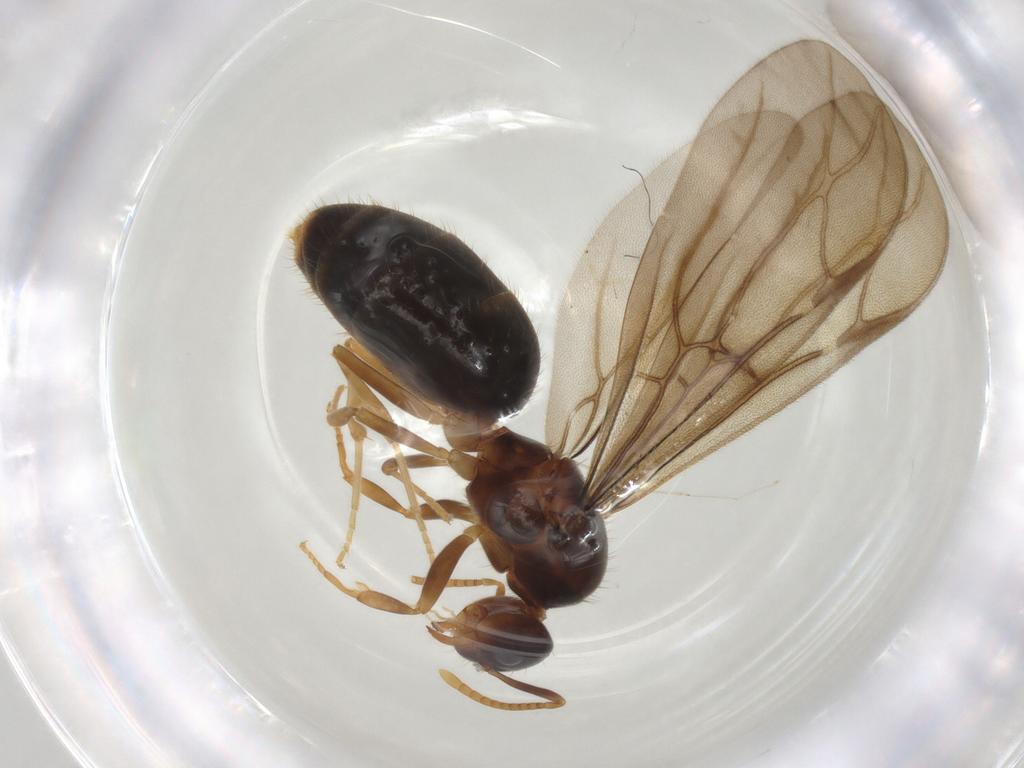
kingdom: Animalia
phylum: Arthropoda
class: Insecta
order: Hymenoptera
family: Formicidae
